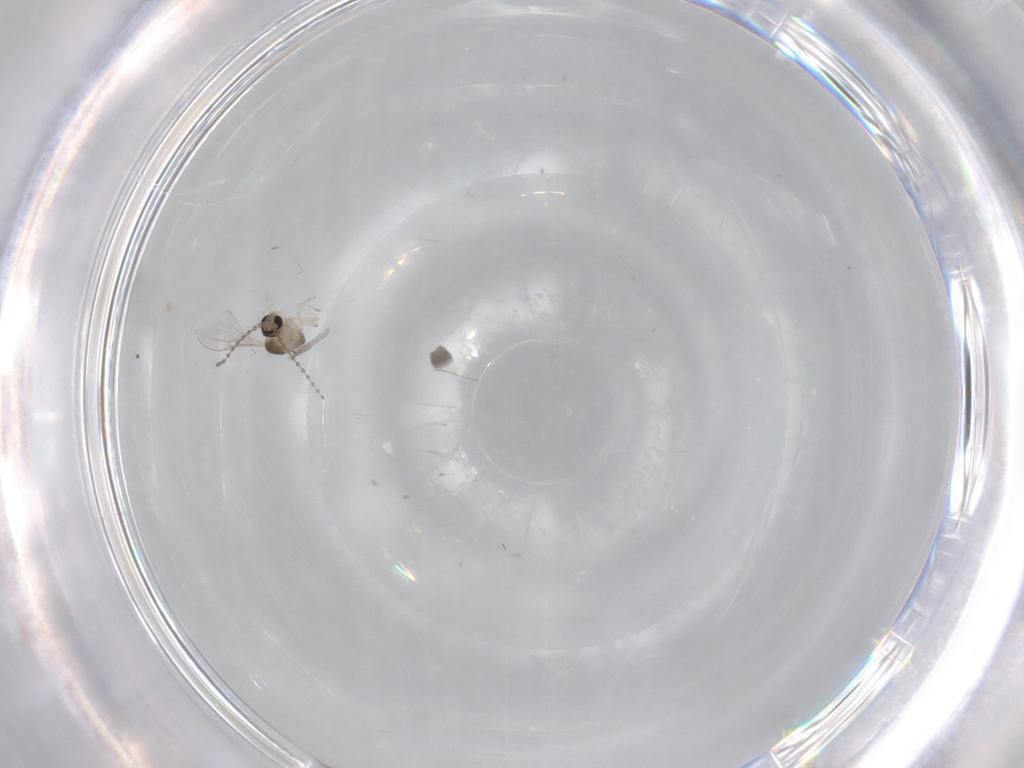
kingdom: Animalia
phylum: Arthropoda
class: Insecta
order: Diptera
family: Cecidomyiidae
